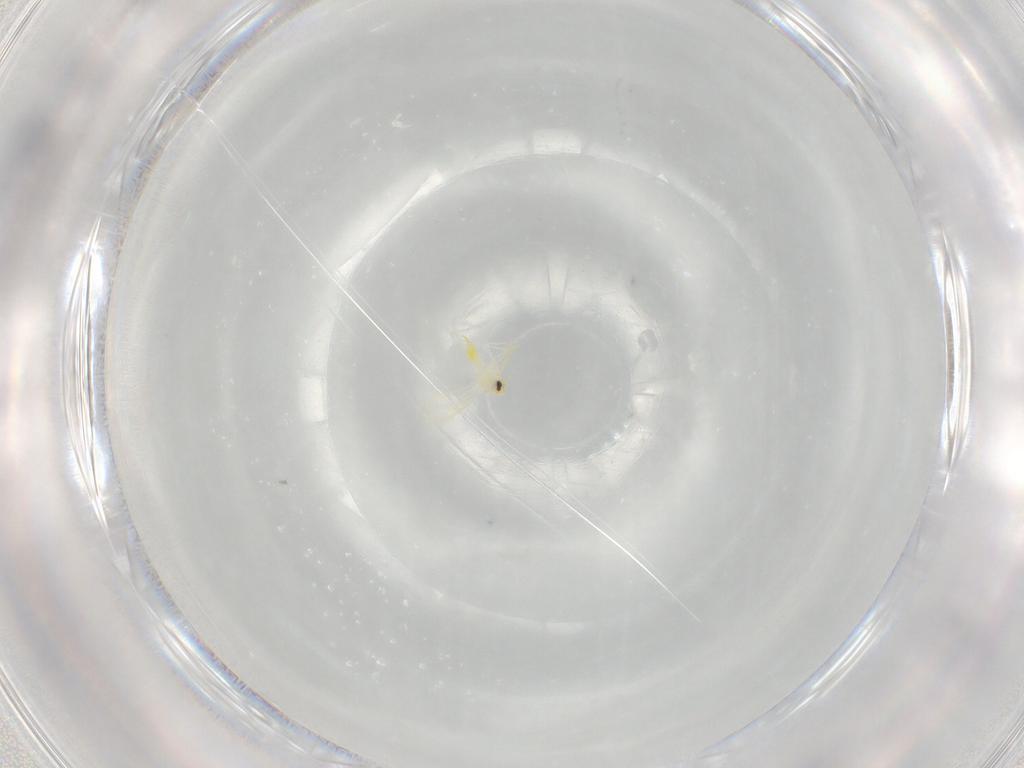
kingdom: Animalia
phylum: Arthropoda
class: Insecta
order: Hemiptera
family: Aleyrodidae
